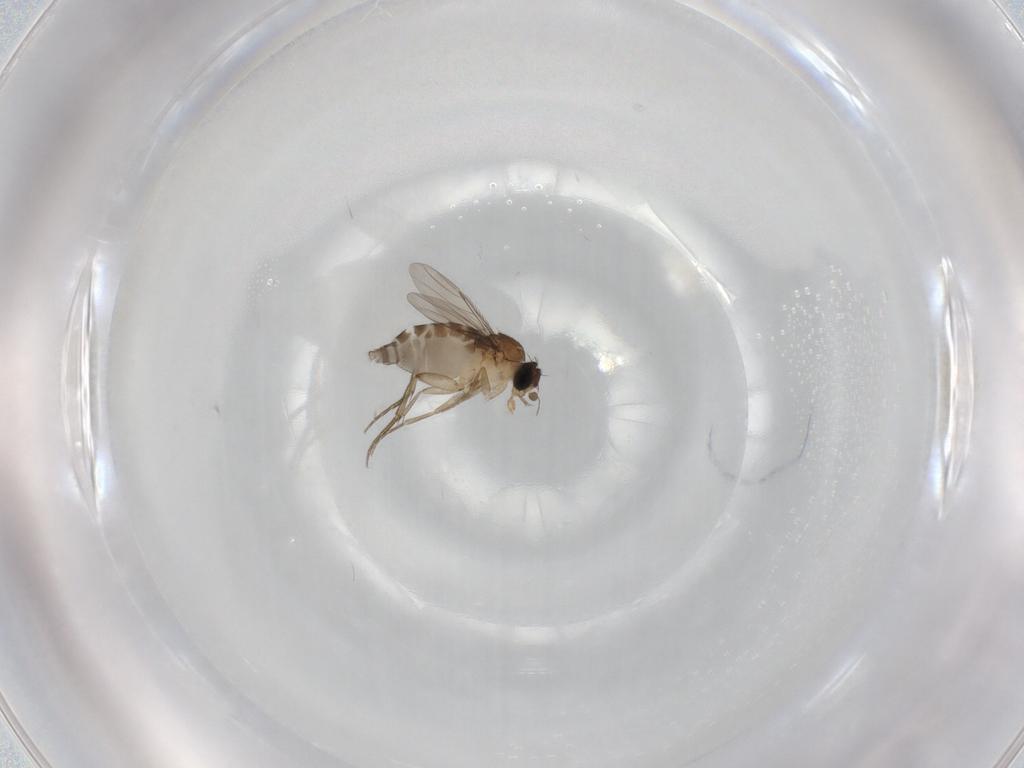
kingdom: Animalia
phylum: Arthropoda
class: Insecta
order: Diptera
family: Phoridae
